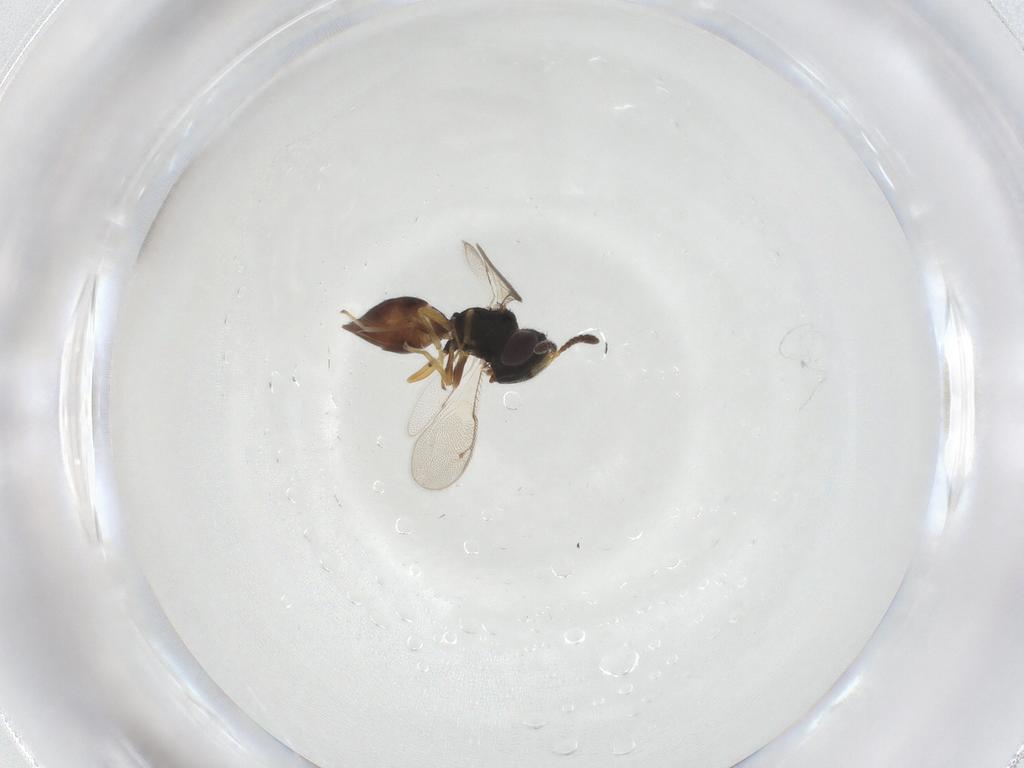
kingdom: Animalia
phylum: Arthropoda
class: Insecta
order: Hymenoptera
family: Pteromalidae
